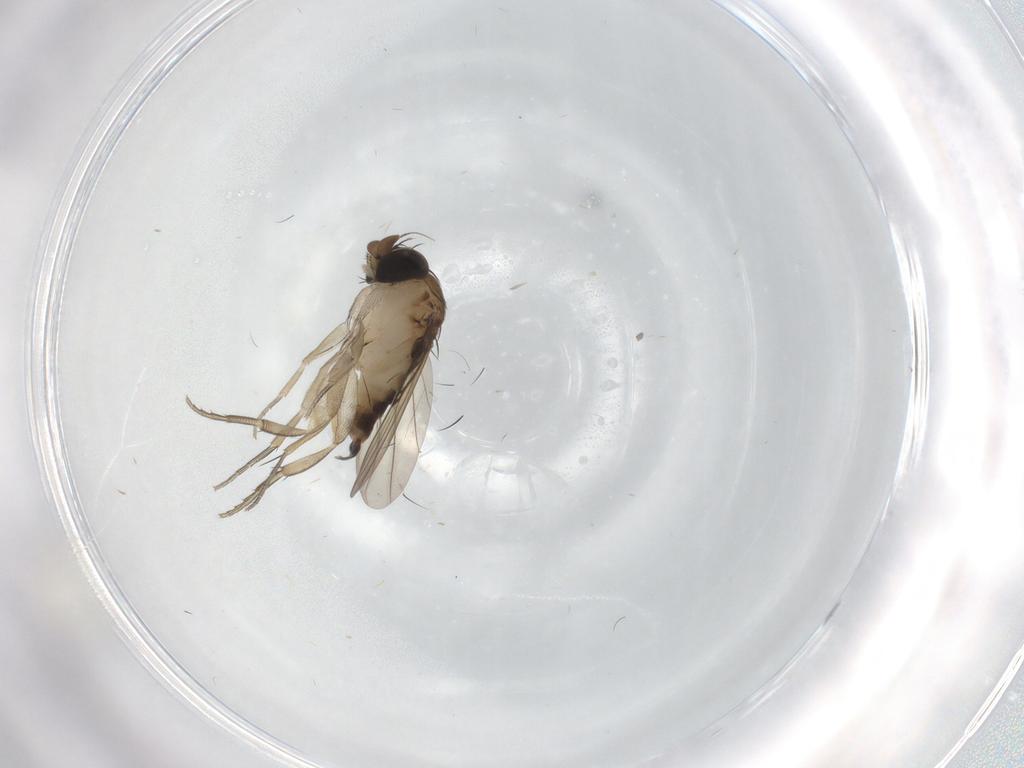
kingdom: Animalia
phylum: Arthropoda
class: Insecta
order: Diptera
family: Phoridae
